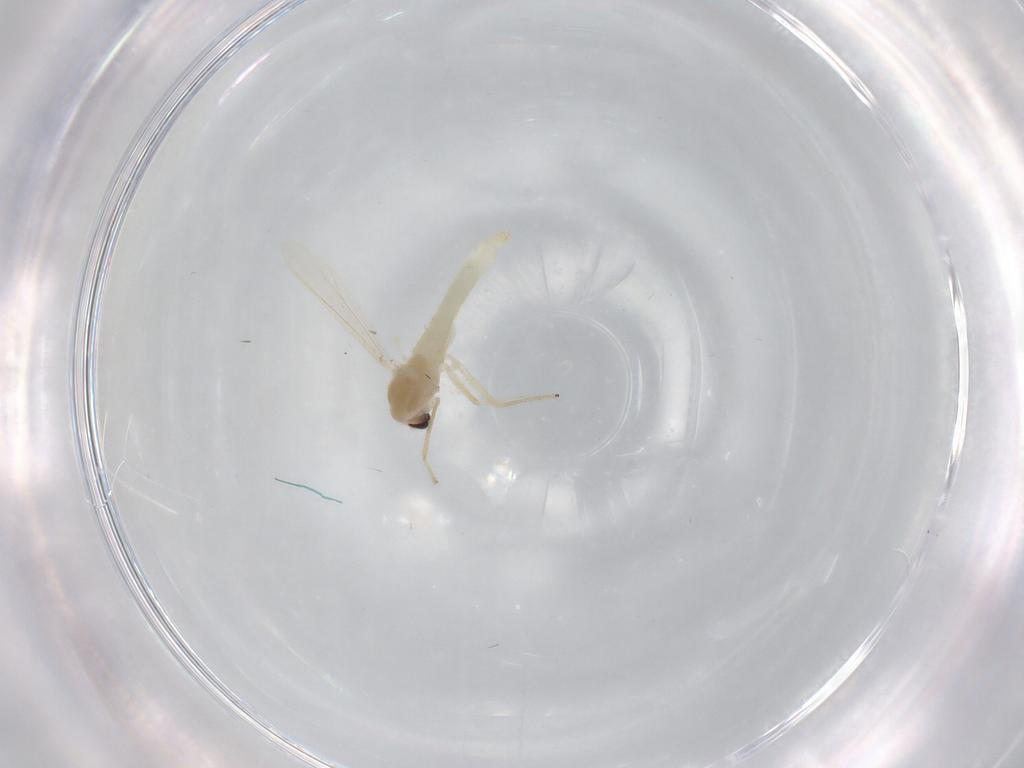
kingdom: Animalia
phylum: Arthropoda
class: Insecta
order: Diptera
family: Chironomidae
